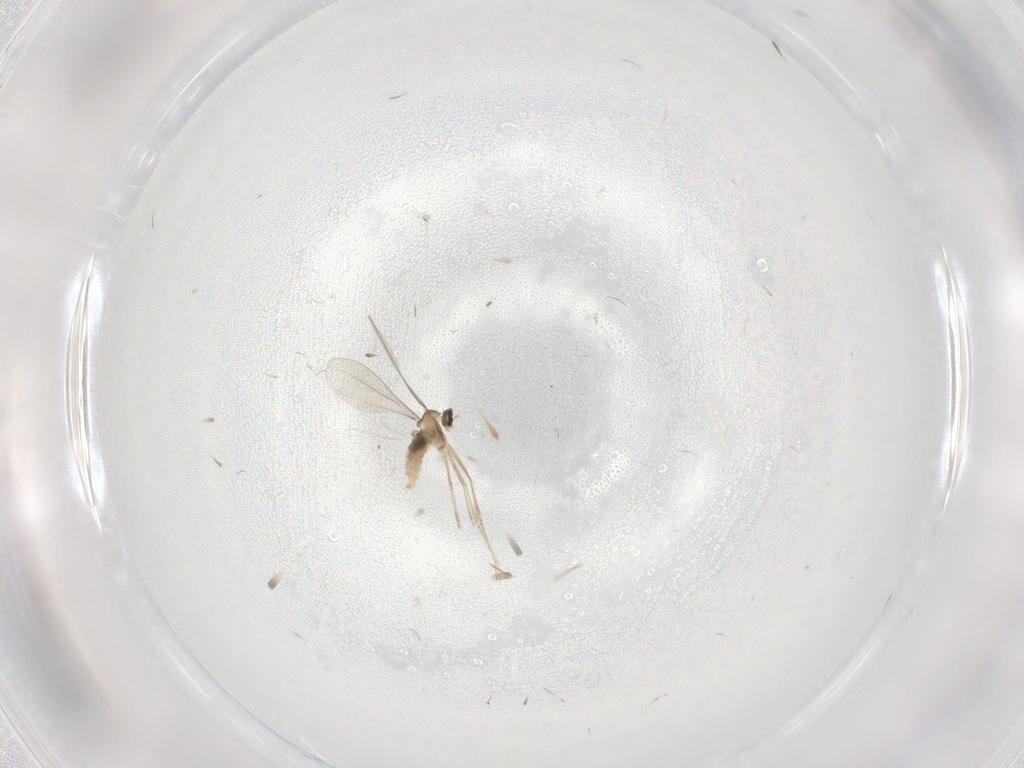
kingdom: Animalia
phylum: Arthropoda
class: Insecta
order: Diptera
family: Cecidomyiidae
